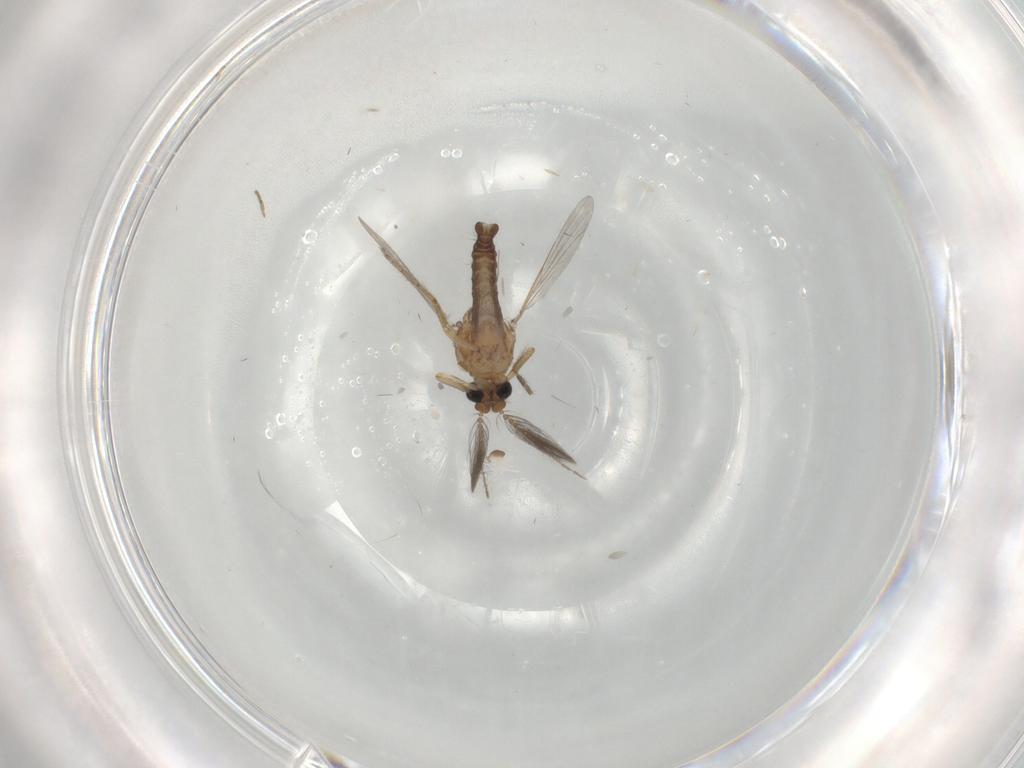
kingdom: Animalia
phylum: Arthropoda
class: Insecta
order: Diptera
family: Ceratopogonidae
